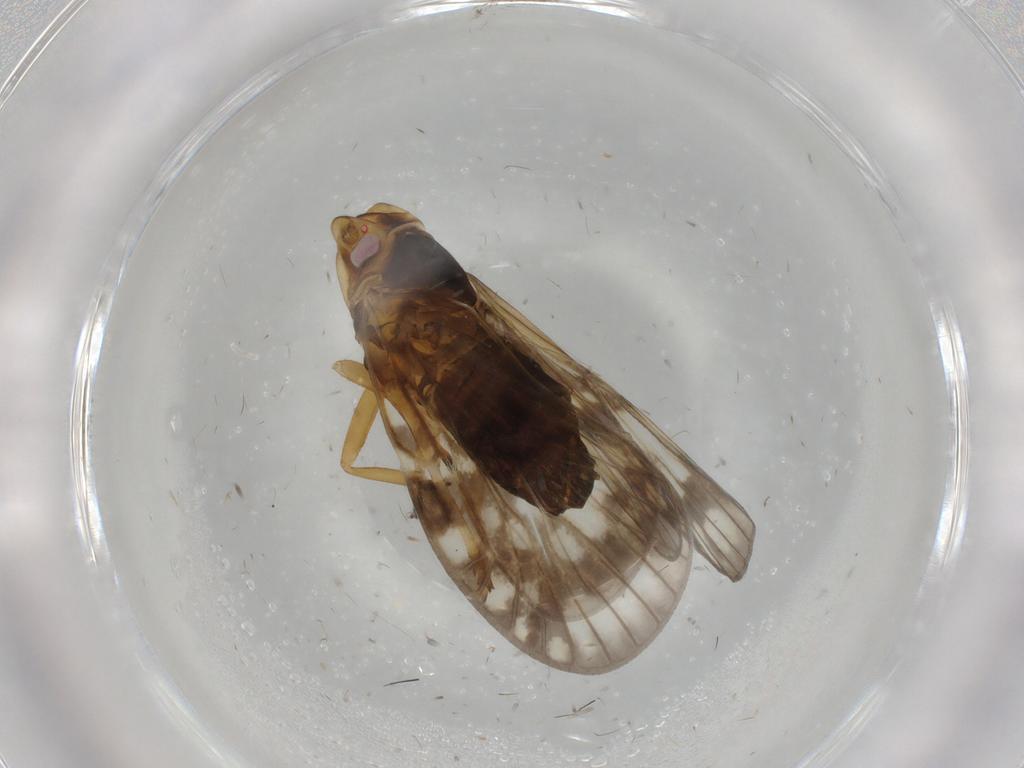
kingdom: Animalia
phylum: Arthropoda
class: Insecta
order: Hemiptera
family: Cixiidae
